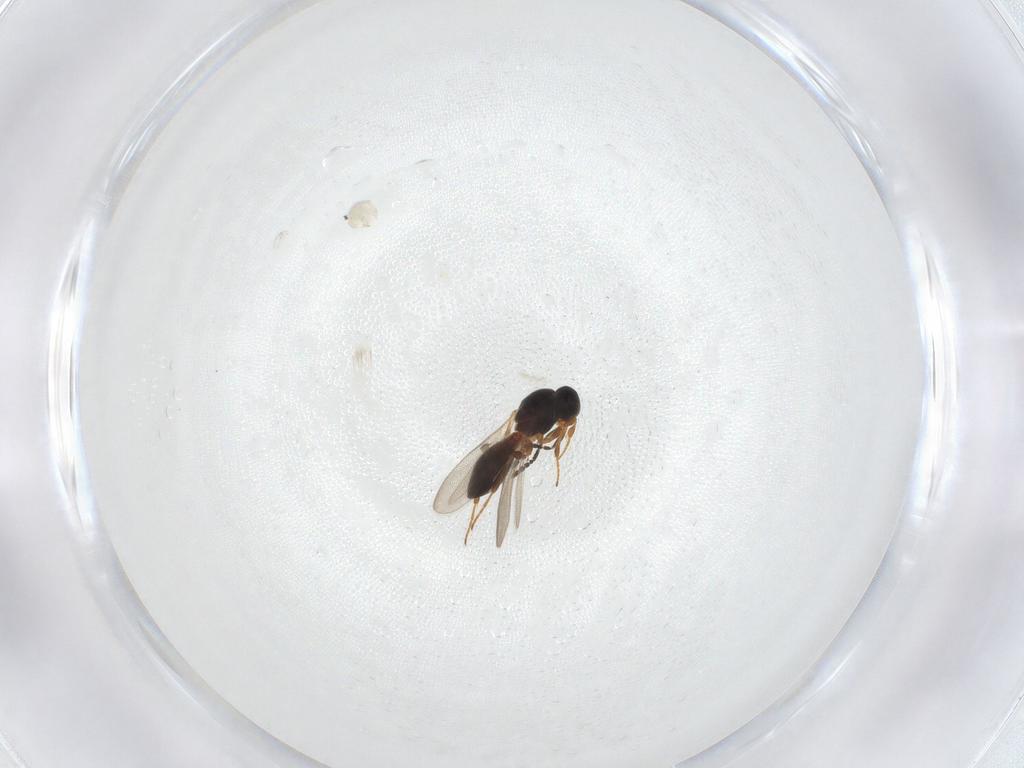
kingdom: Animalia
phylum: Arthropoda
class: Insecta
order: Hymenoptera
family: Platygastridae
